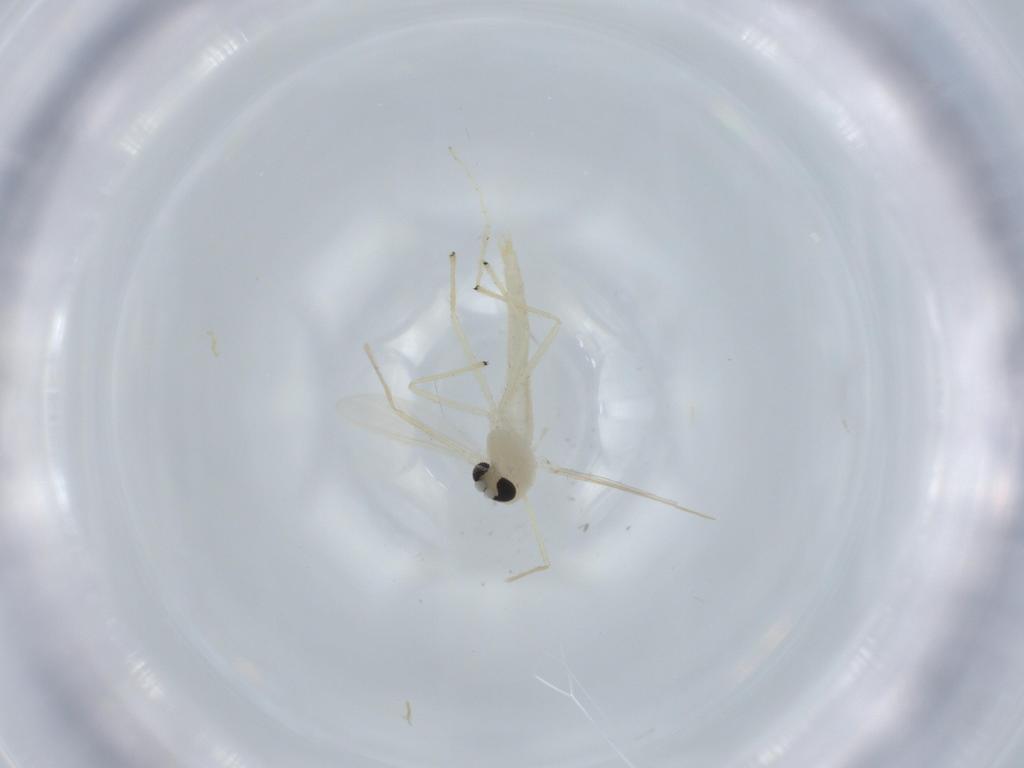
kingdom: Animalia
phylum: Arthropoda
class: Insecta
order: Diptera
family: Chironomidae
